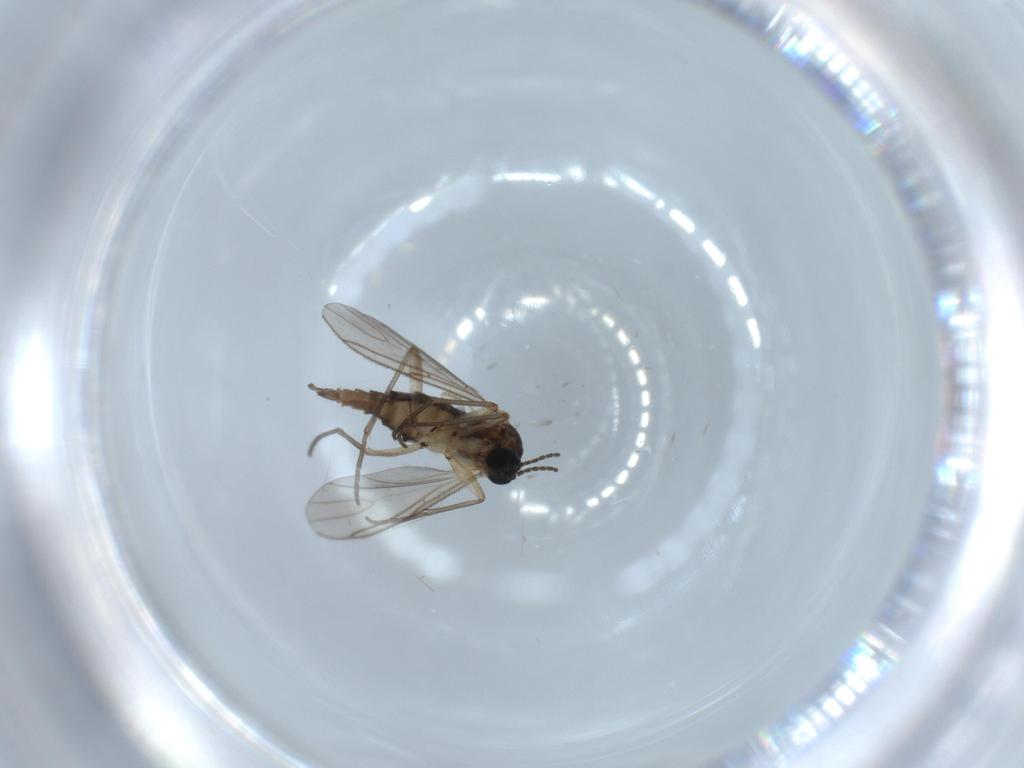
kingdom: Animalia
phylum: Arthropoda
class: Insecta
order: Diptera
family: Sciaridae
